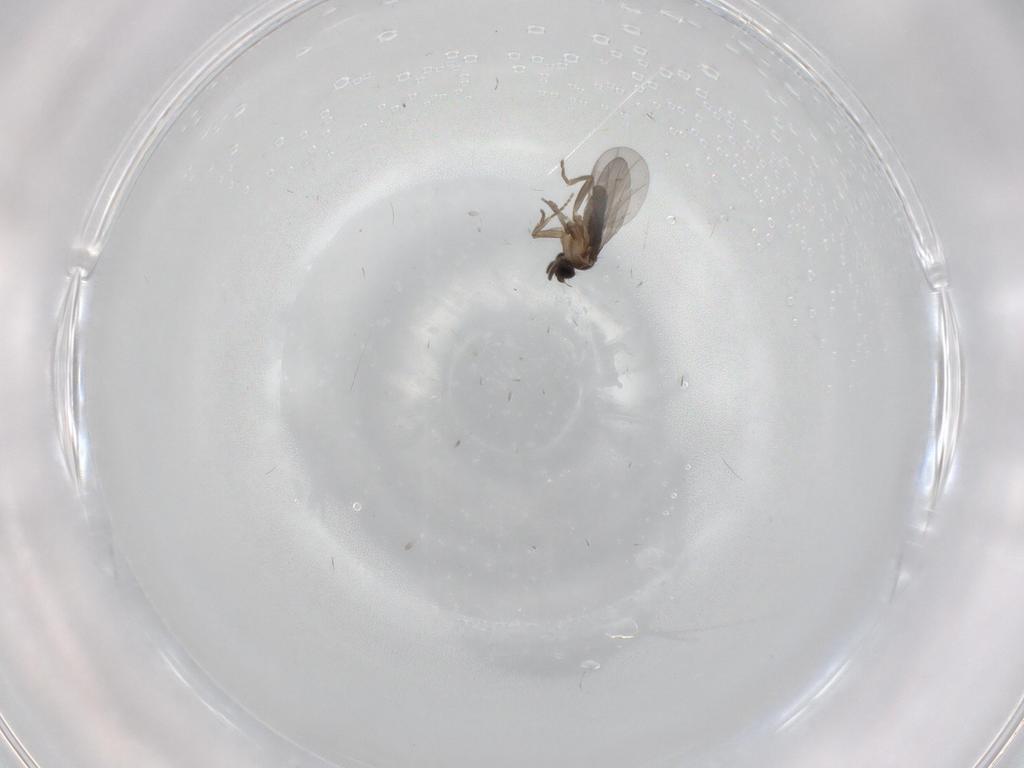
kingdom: Animalia
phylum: Arthropoda
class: Insecta
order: Diptera
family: Cecidomyiidae
